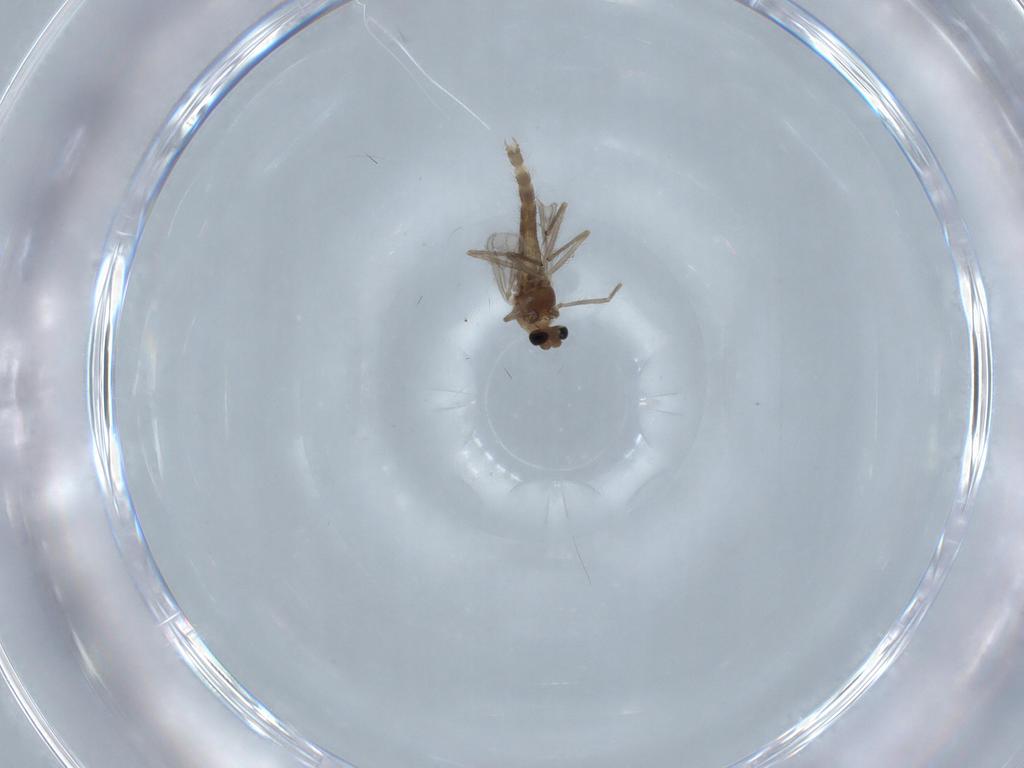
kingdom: Animalia
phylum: Arthropoda
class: Insecta
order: Diptera
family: Chironomidae
